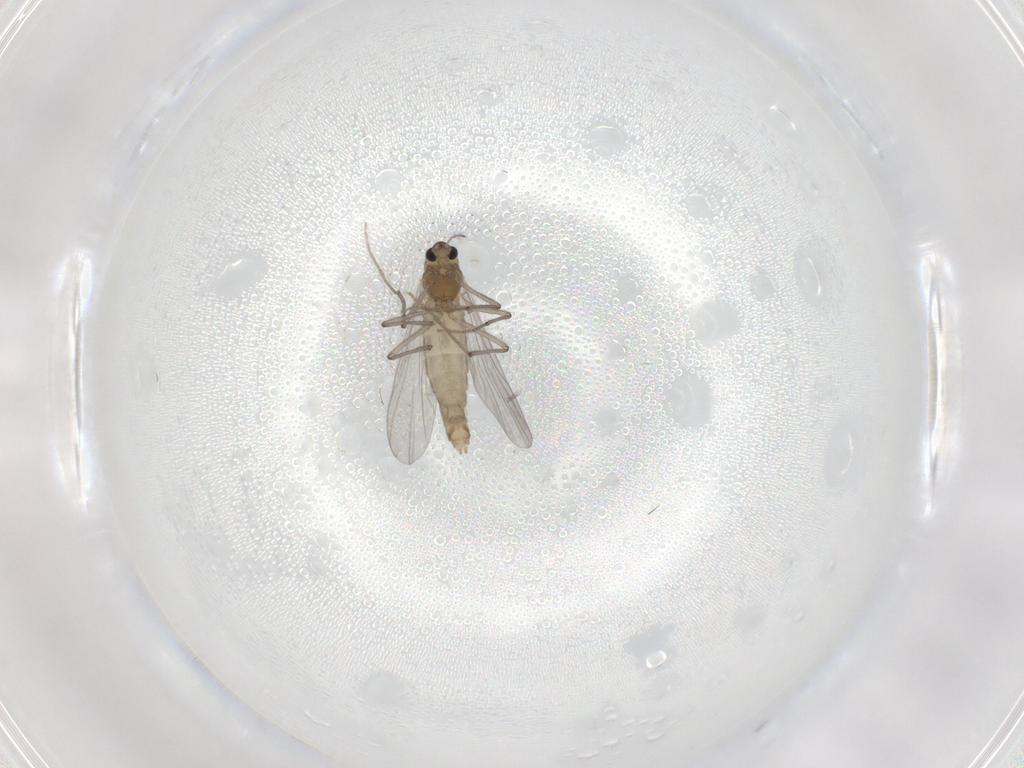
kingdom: Animalia
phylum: Arthropoda
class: Insecta
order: Diptera
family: Chironomidae
